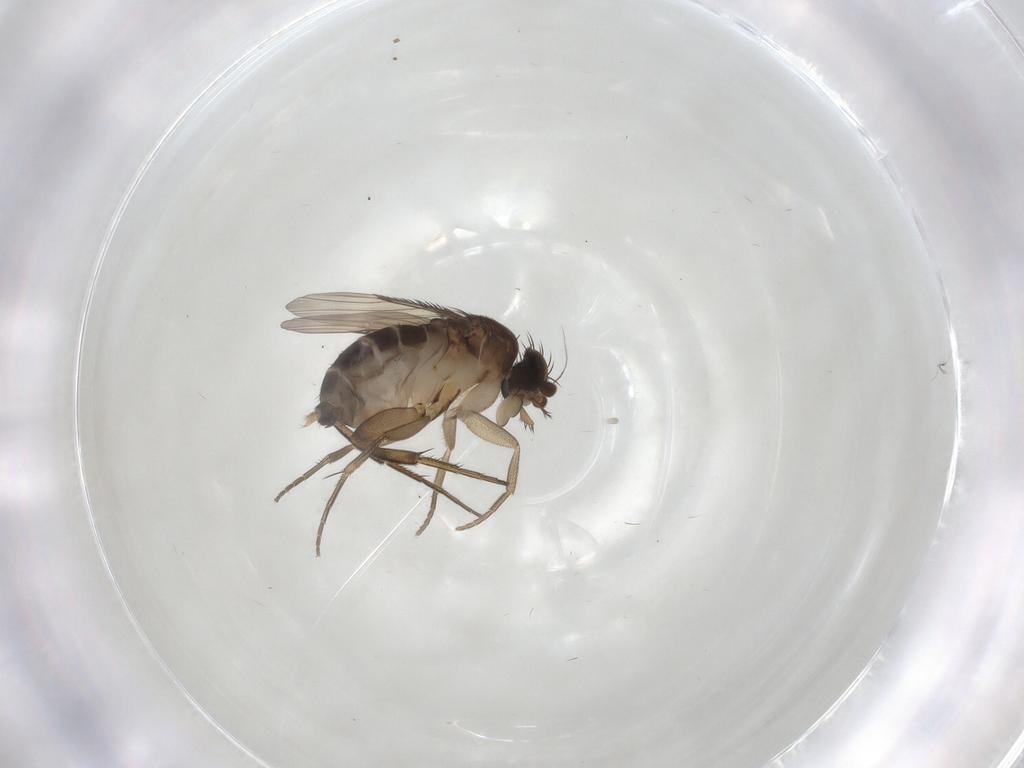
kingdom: Animalia
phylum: Arthropoda
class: Insecta
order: Diptera
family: Phoridae
